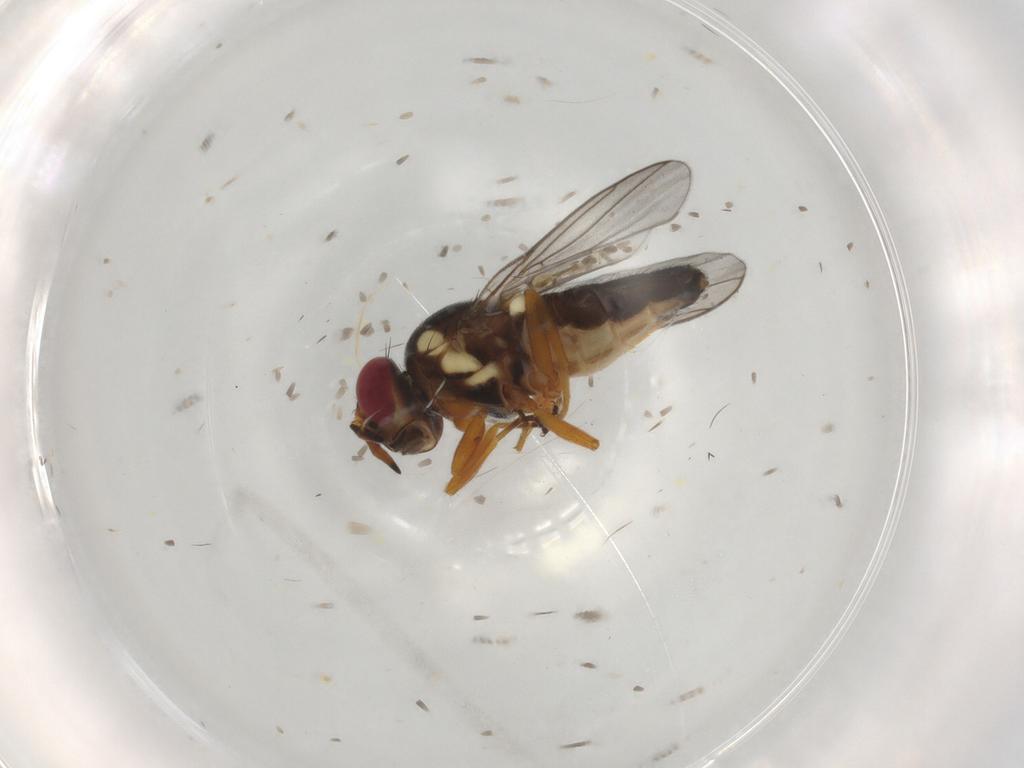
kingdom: Animalia
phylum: Arthropoda
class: Insecta
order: Diptera
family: Chloropidae
